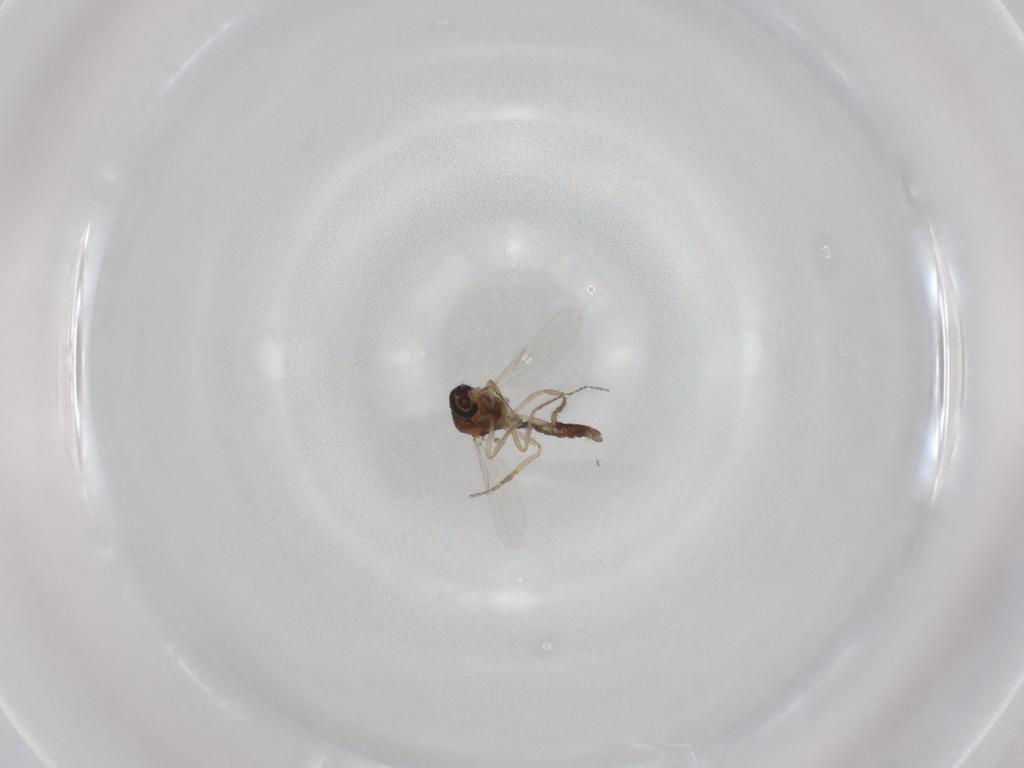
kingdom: Animalia
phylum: Arthropoda
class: Insecta
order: Diptera
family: Ceratopogonidae
